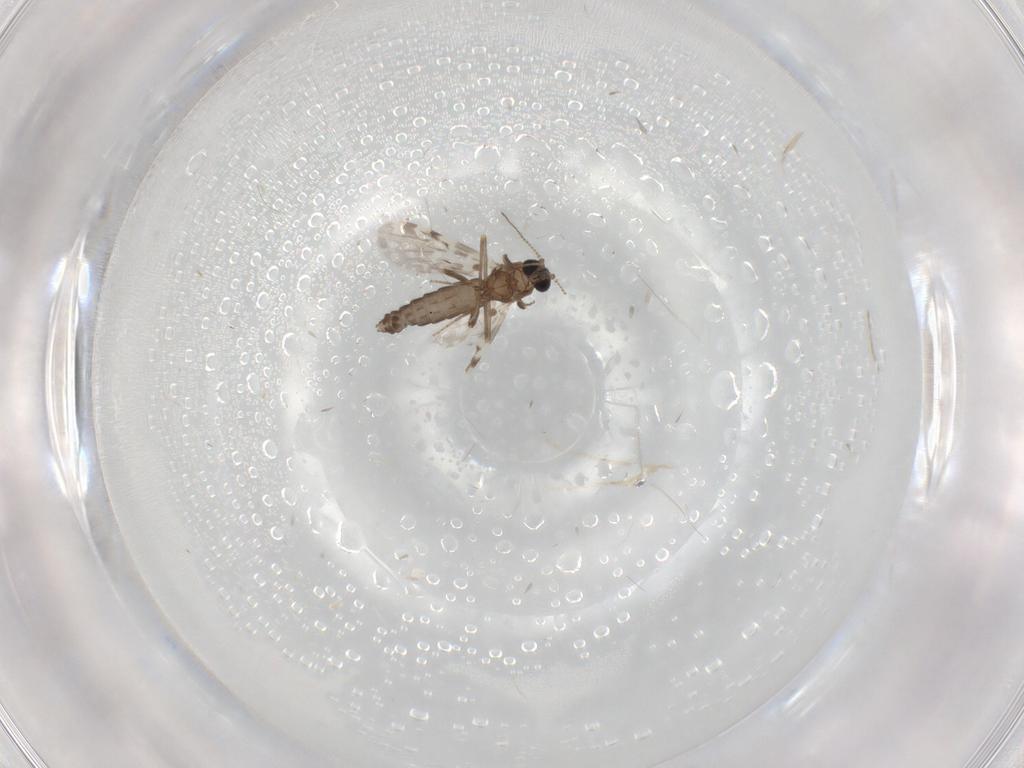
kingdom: Animalia
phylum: Arthropoda
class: Insecta
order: Diptera
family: Ceratopogonidae
